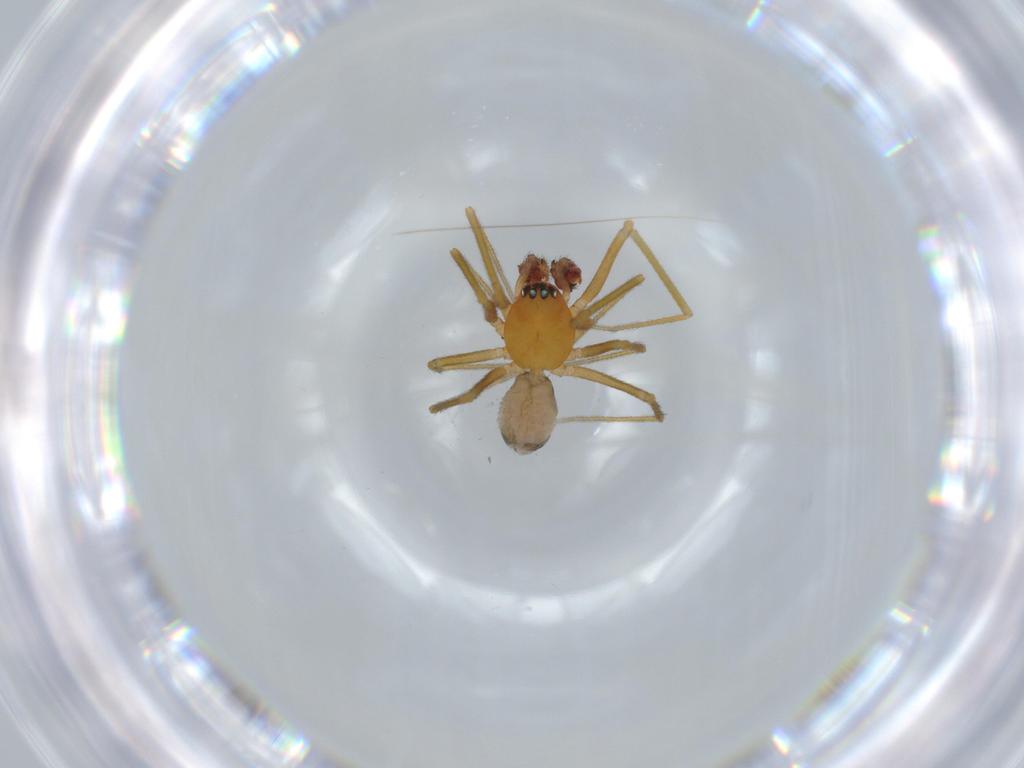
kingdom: Animalia
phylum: Arthropoda
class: Arachnida
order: Araneae
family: Linyphiidae
